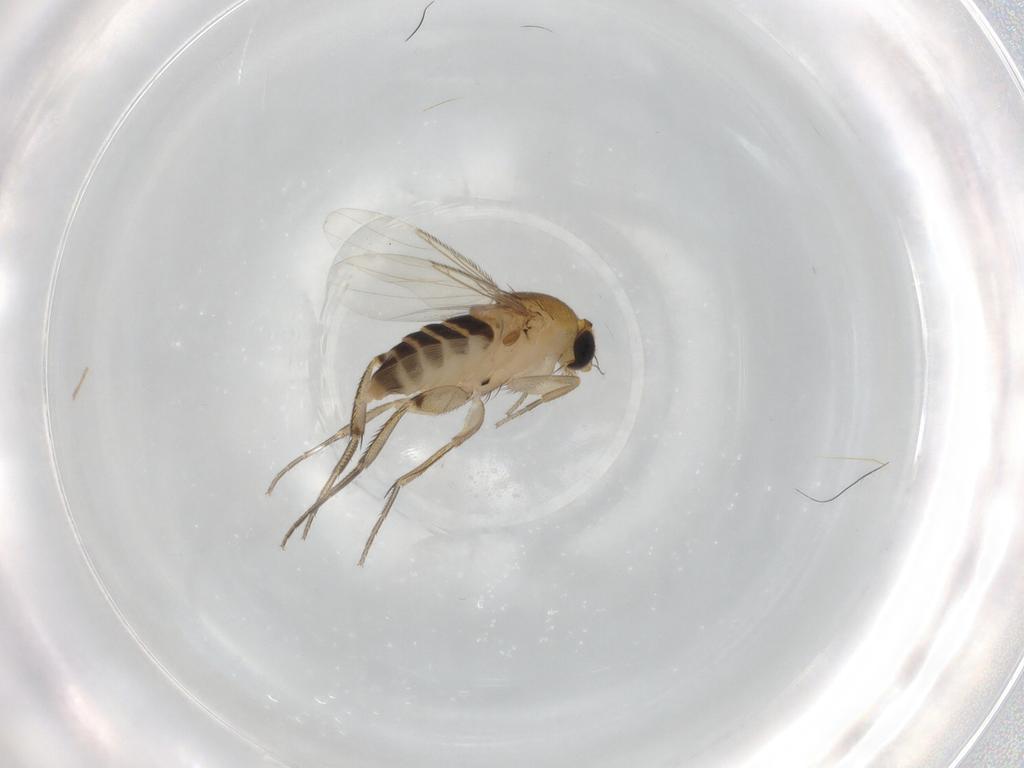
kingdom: Animalia
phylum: Arthropoda
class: Insecta
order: Diptera
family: Phoridae
